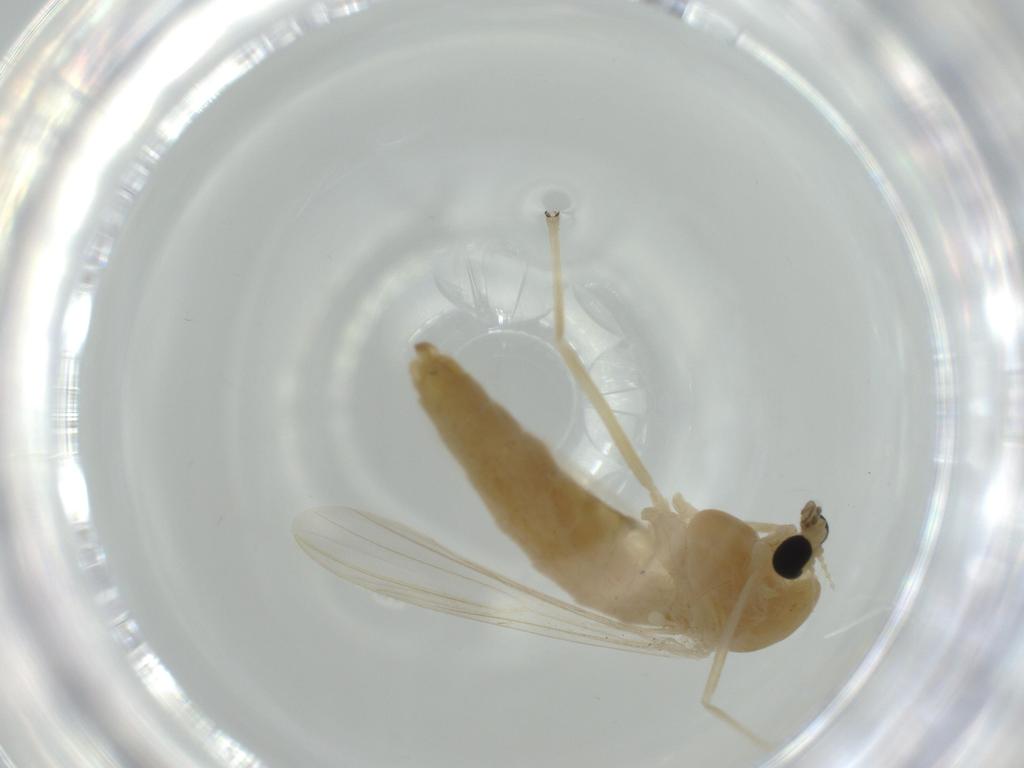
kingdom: Animalia
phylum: Arthropoda
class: Insecta
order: Diptera
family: Chironomidae
